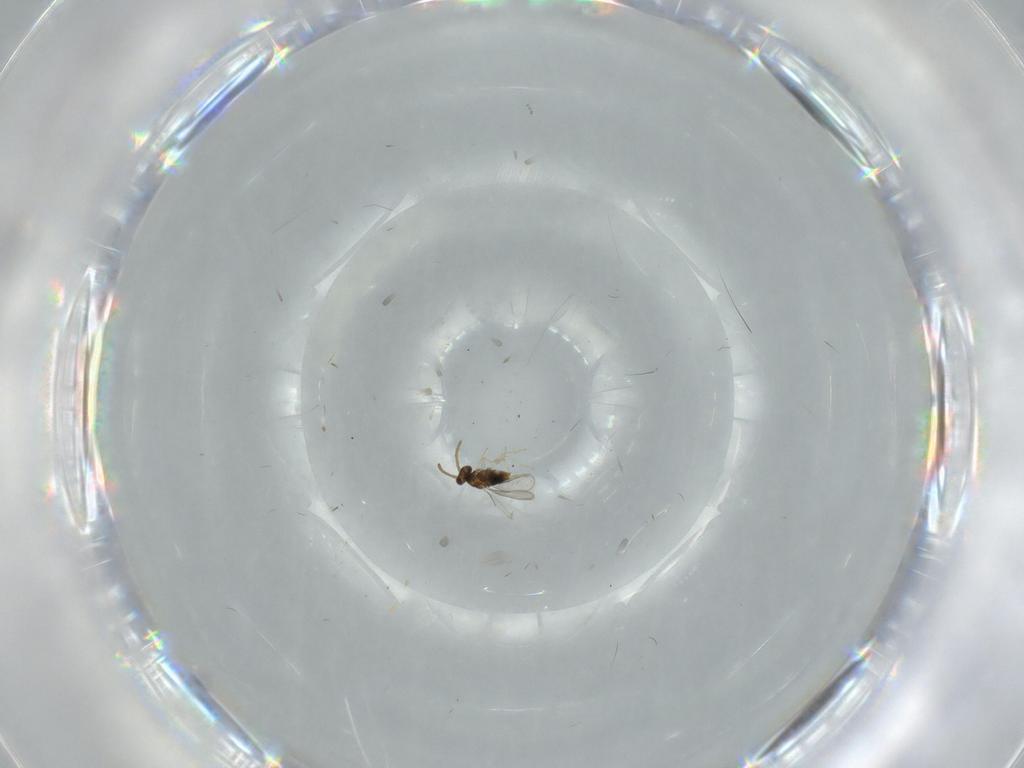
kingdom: Animalia
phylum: Arthropoda
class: Insecta
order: Hymenoptera
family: Aphelinidae
